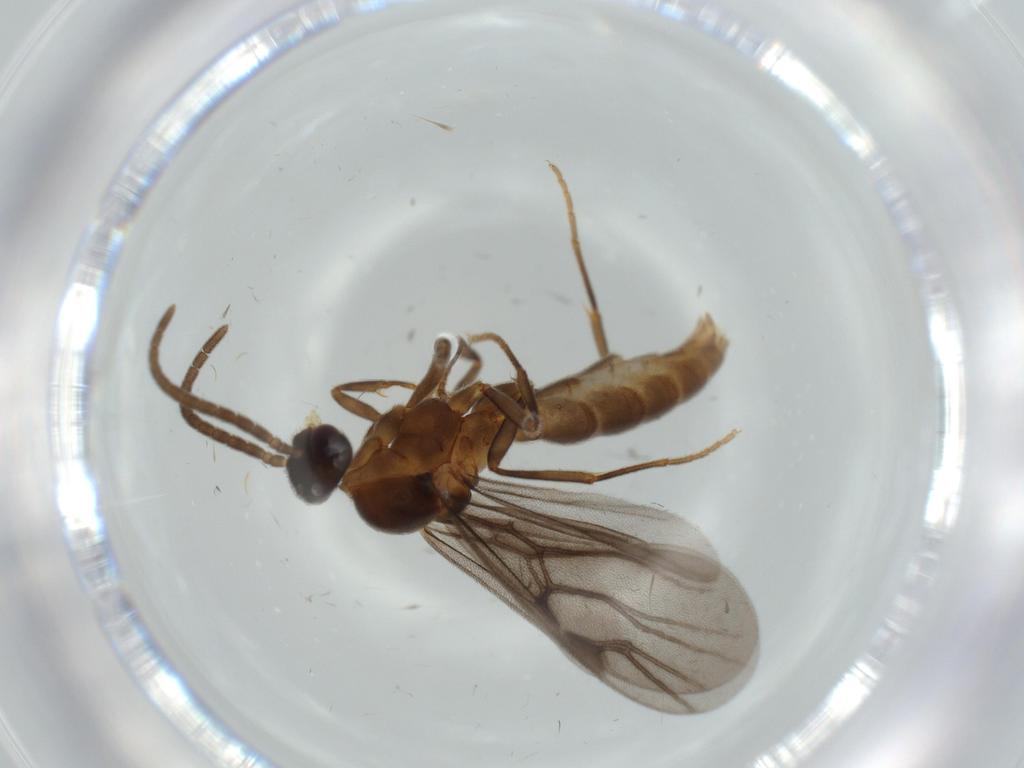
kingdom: Animalia
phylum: Arthropoda
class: Insecta
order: Hymenoptera
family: Formicidae
